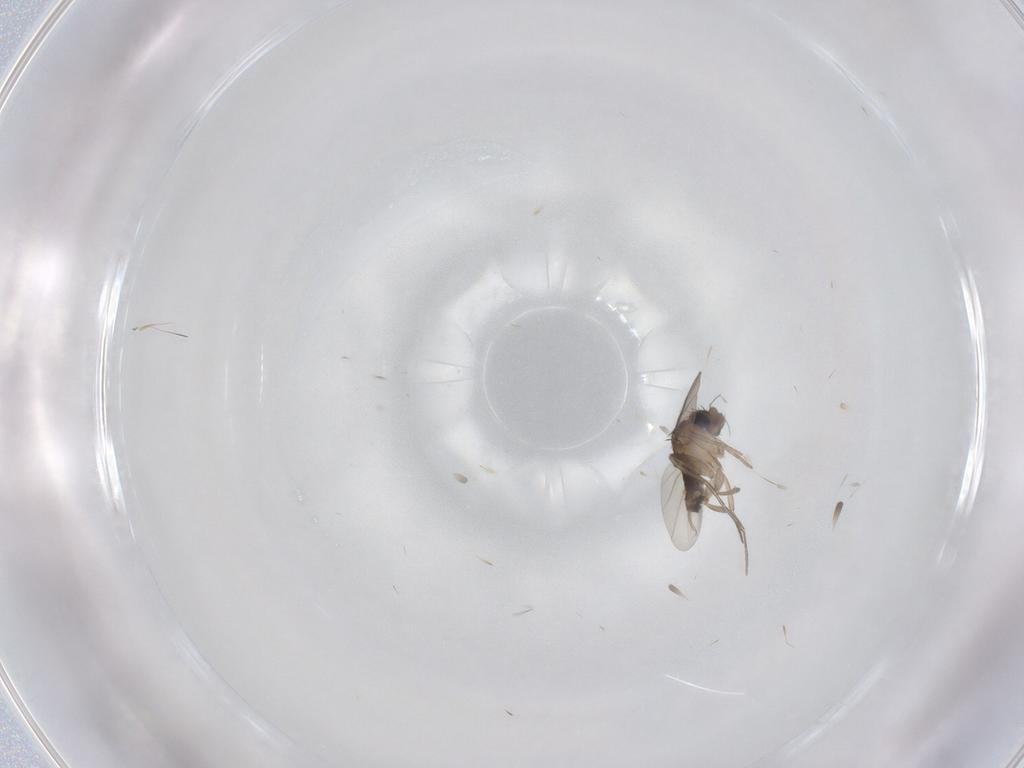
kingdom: Animalia
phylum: Arthropoda
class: Insecta
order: Diptera
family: Phoridae
